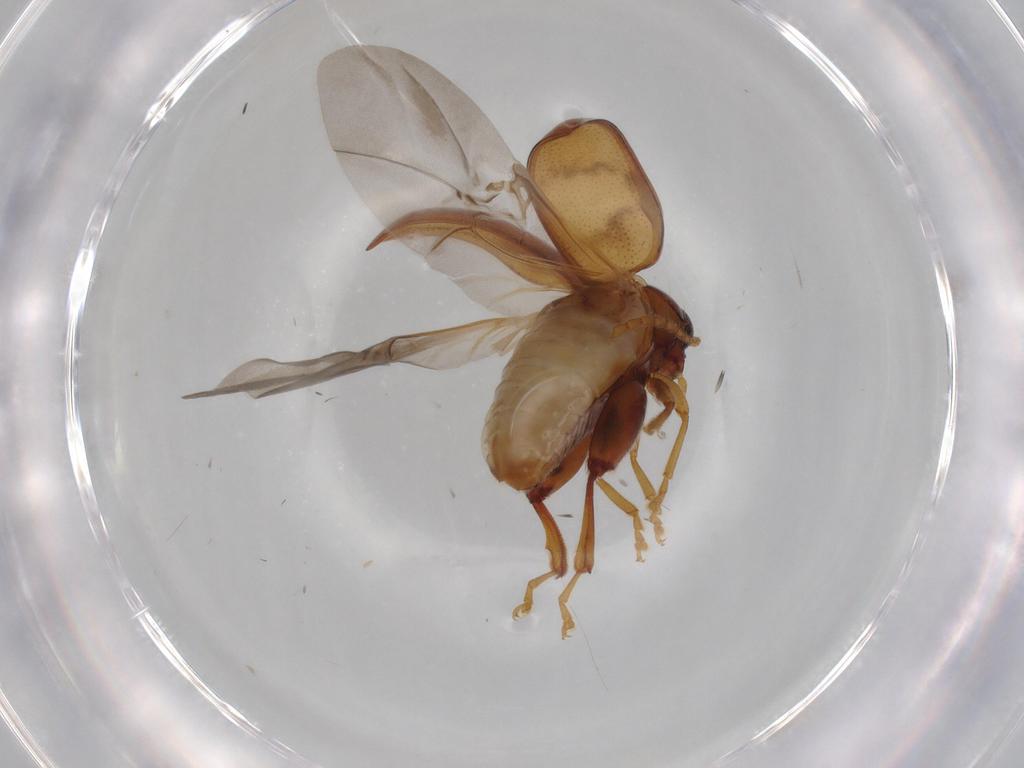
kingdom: Animalia
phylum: Arthropoda
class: Insecta
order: Coleoptera
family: Chrysomelidae
